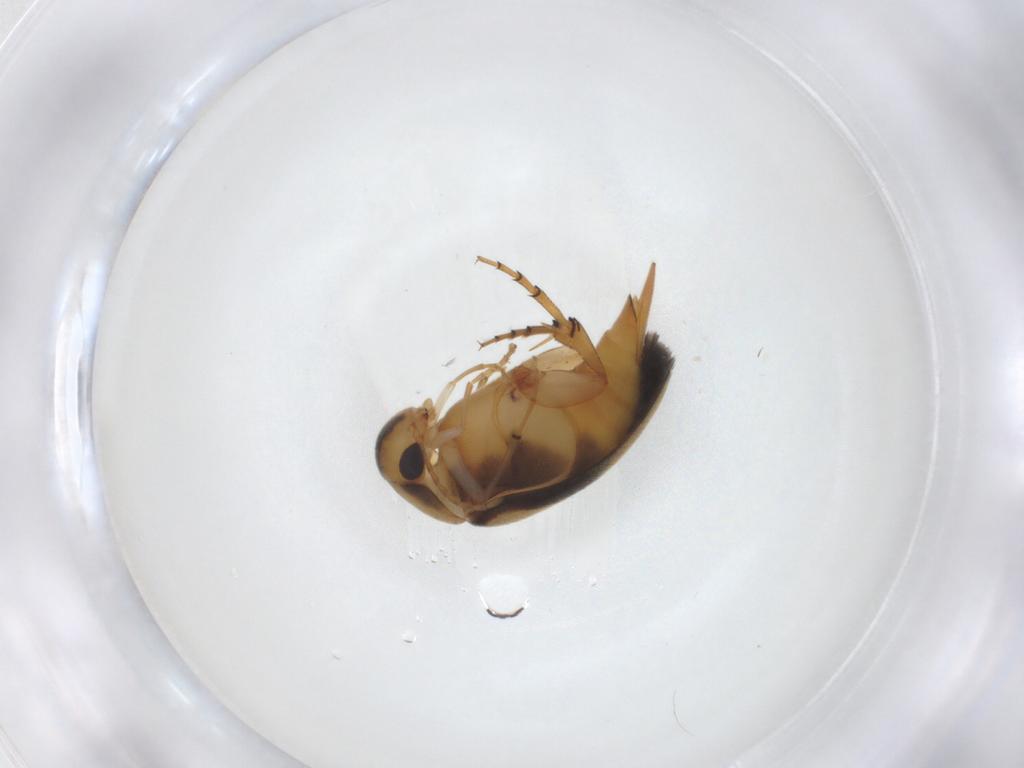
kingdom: Animalia
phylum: Arthropoda
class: Insecta
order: Coleoptera
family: Mordellidae
